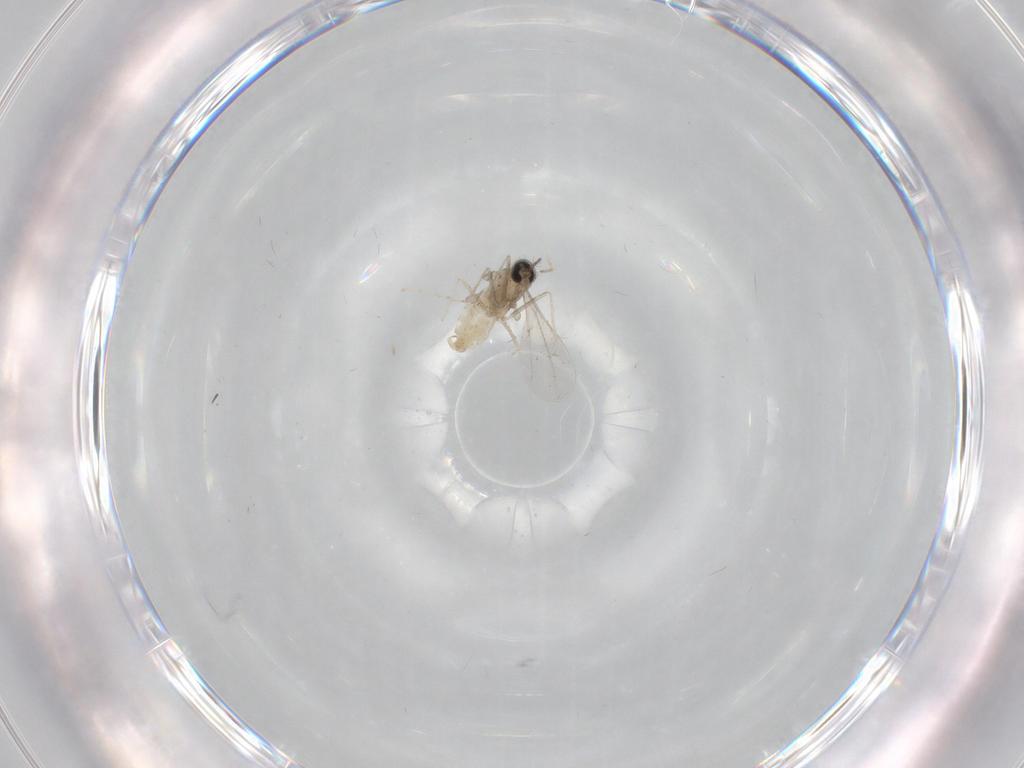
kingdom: Animalia
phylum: Arthropoda
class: Insecta
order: Diptera
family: Cecidomyiidae
